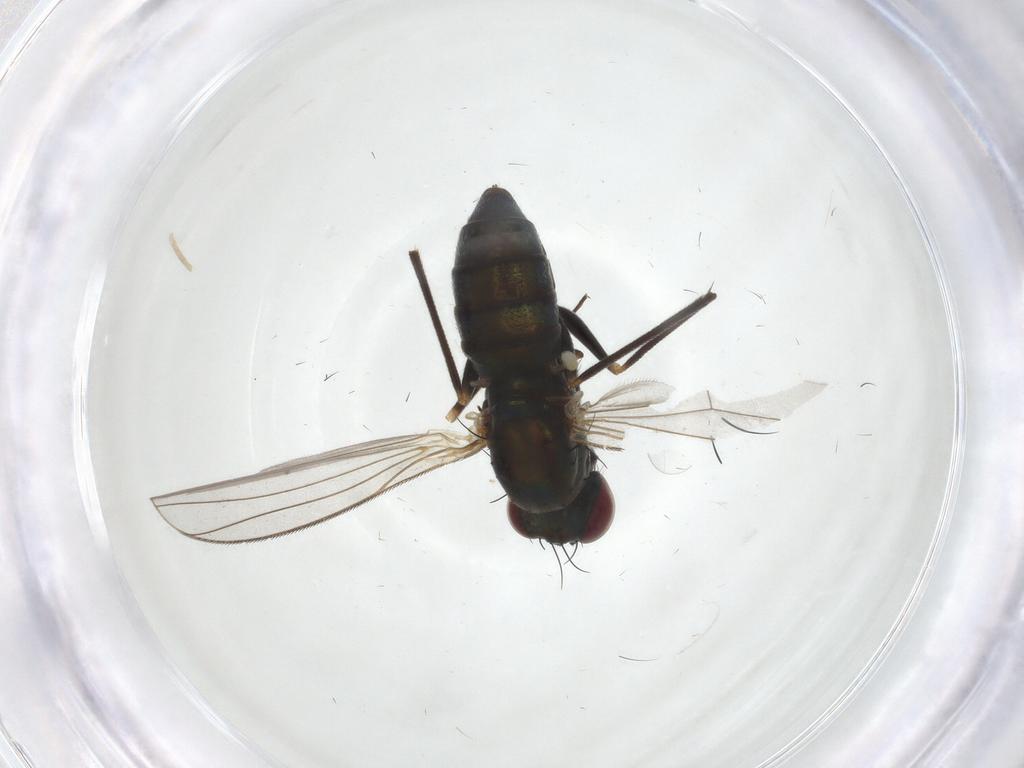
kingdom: Animalia
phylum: Arthropoda
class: Insecta
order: Diptera
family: Dolichopodidae
